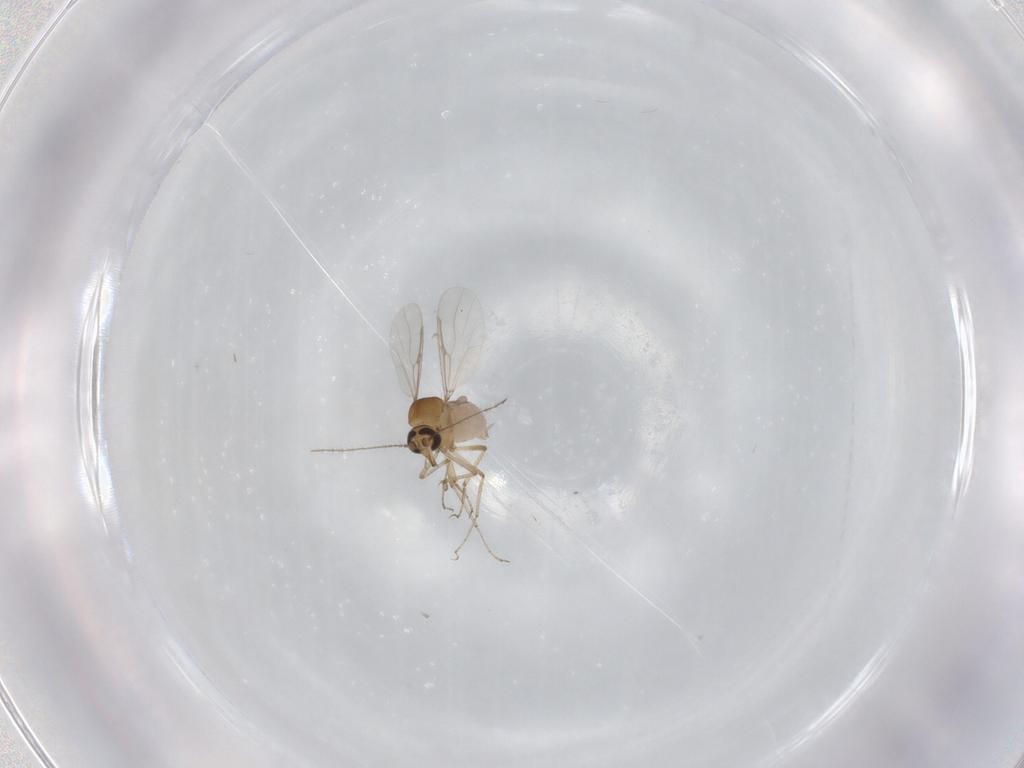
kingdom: Animalia
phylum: Arthropoda
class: Insecta
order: Diptera
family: Ceratopogonidae
